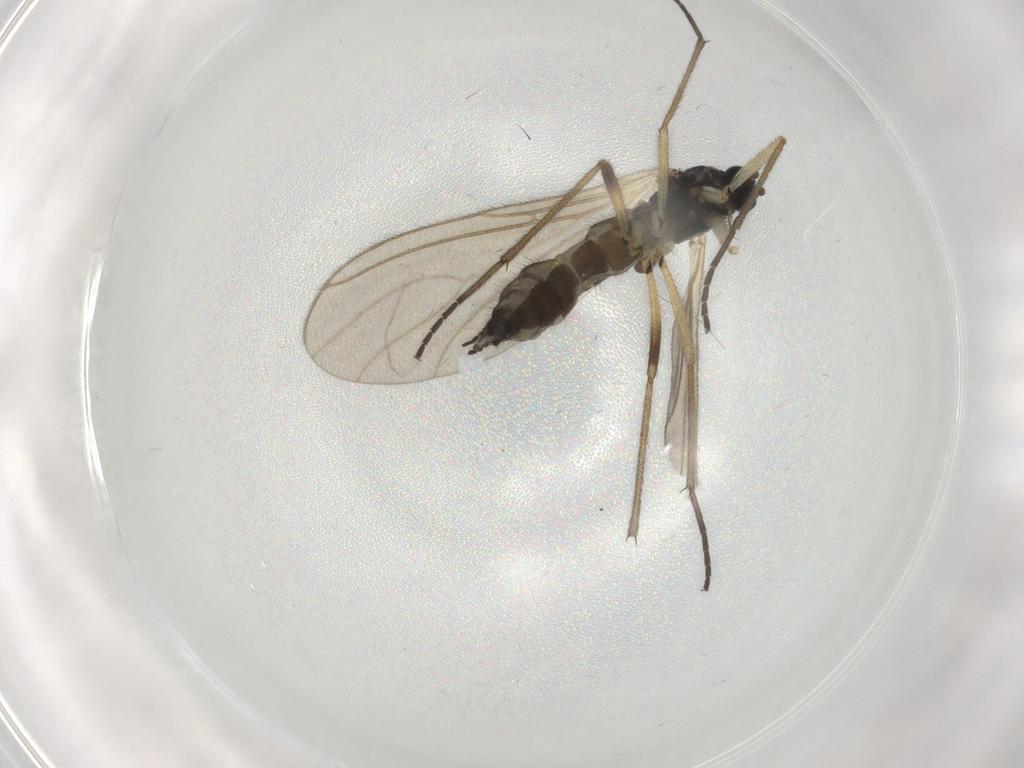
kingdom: Animalia
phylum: Arthropoda
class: Insecta
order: Diptera
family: Sciaridae
